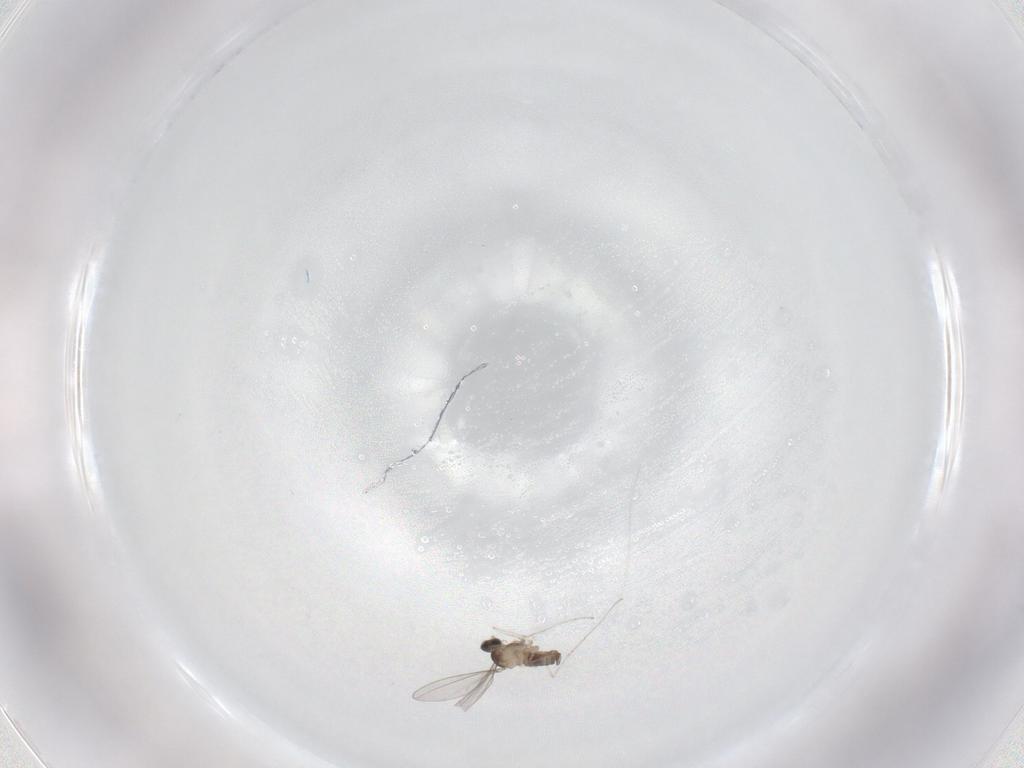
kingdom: Animalia
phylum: Arthropoda
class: Insecta
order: Diptera
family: Cecidomyiidae
